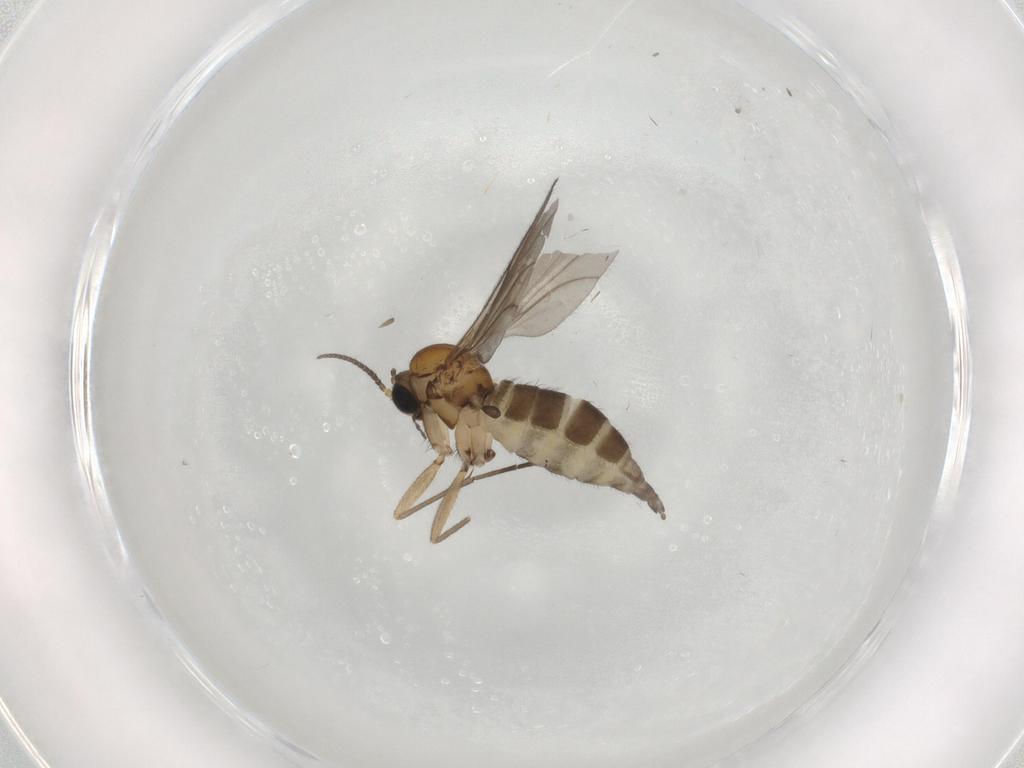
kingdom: Animalia
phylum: Arthropoda
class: Insecta
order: Diptera
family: Sciaridae
